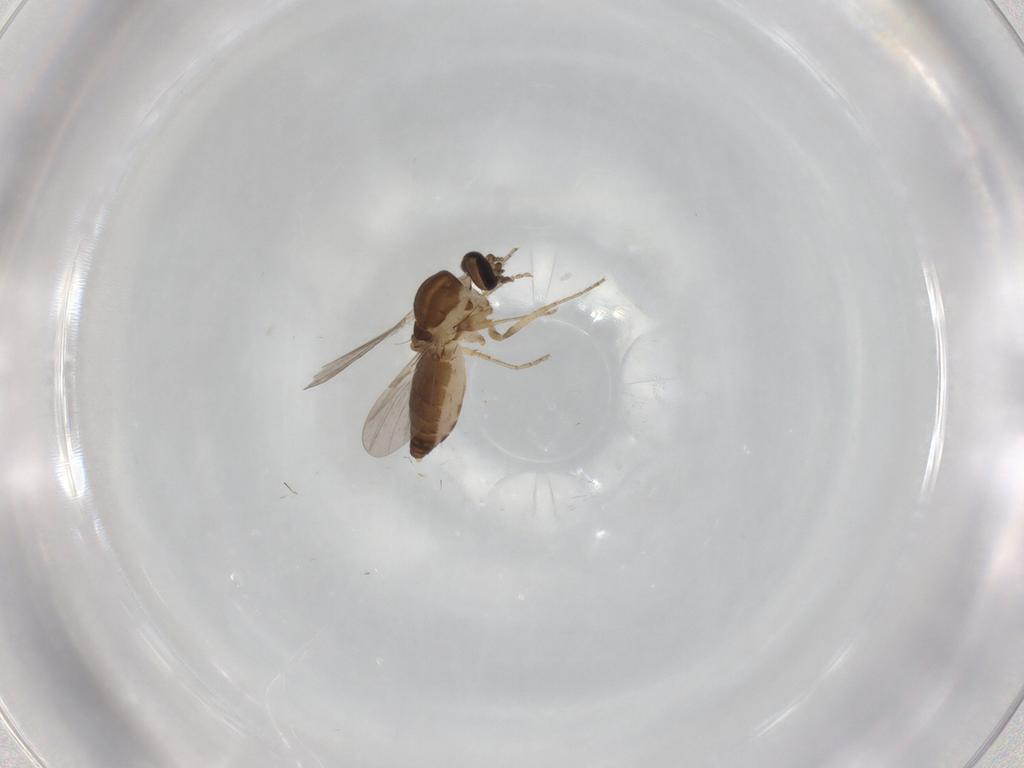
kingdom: Animalia
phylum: Arthropoda
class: Insecta
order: Diptera
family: Ceratopogonidae
